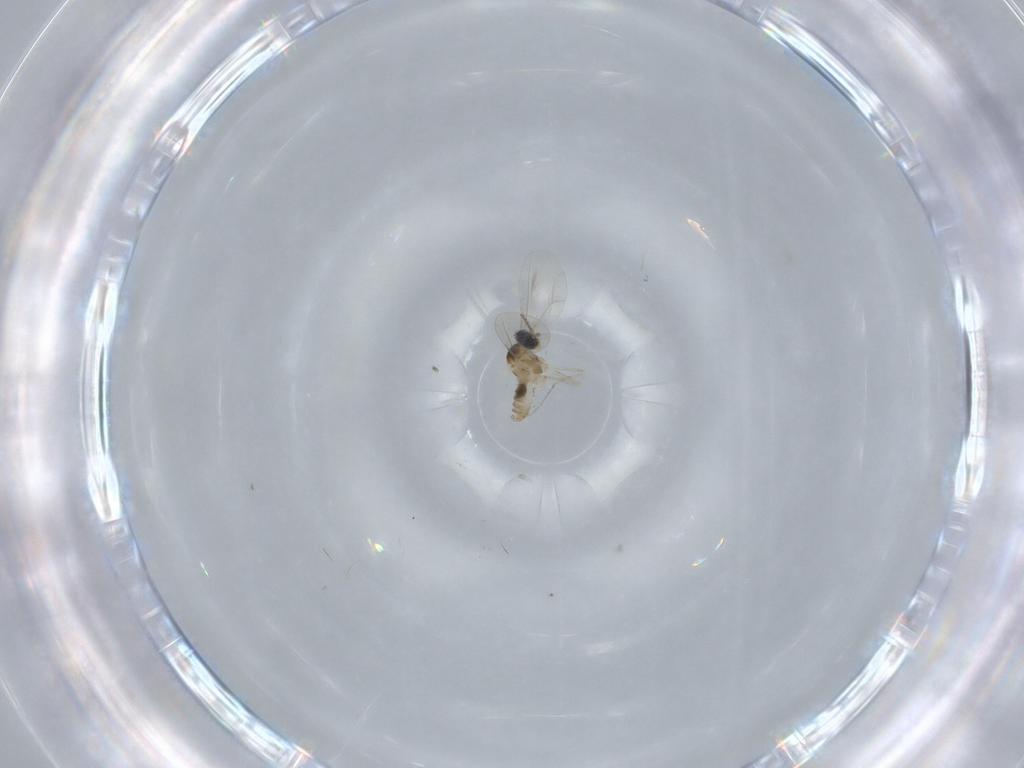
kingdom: Animalia
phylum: Arthropoda
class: Insecta
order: Diptera
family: Cecidomyiidae
